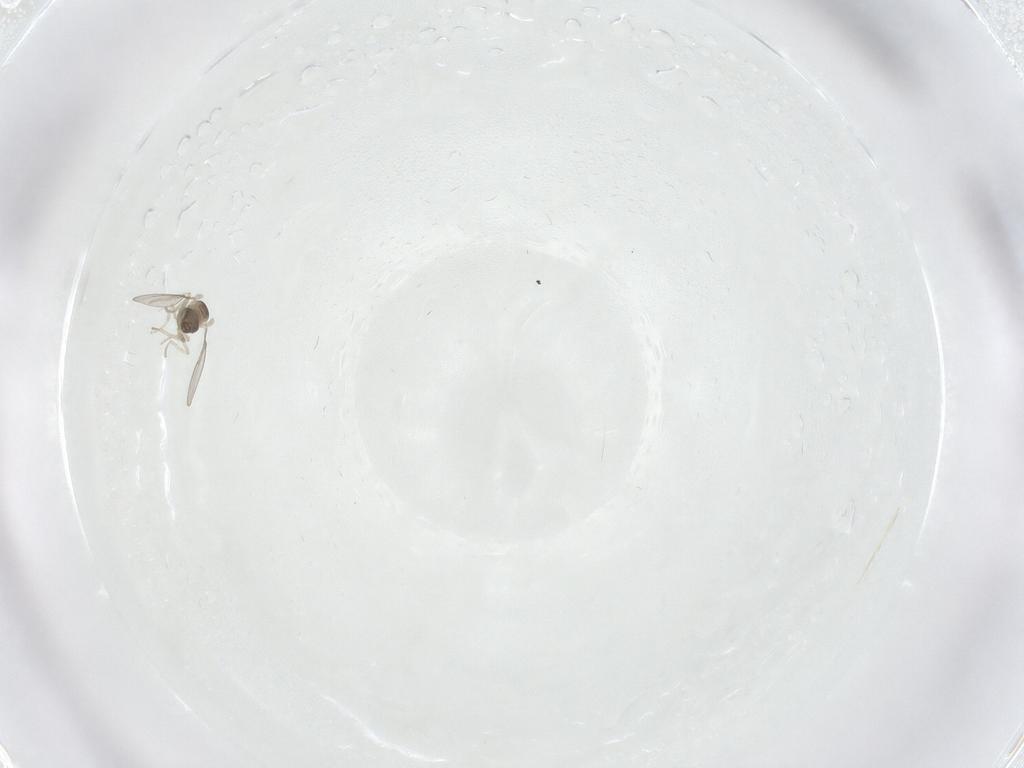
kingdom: Animalia
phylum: Arthropoda
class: Insecta
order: Diptera
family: Cecidomyiidae
